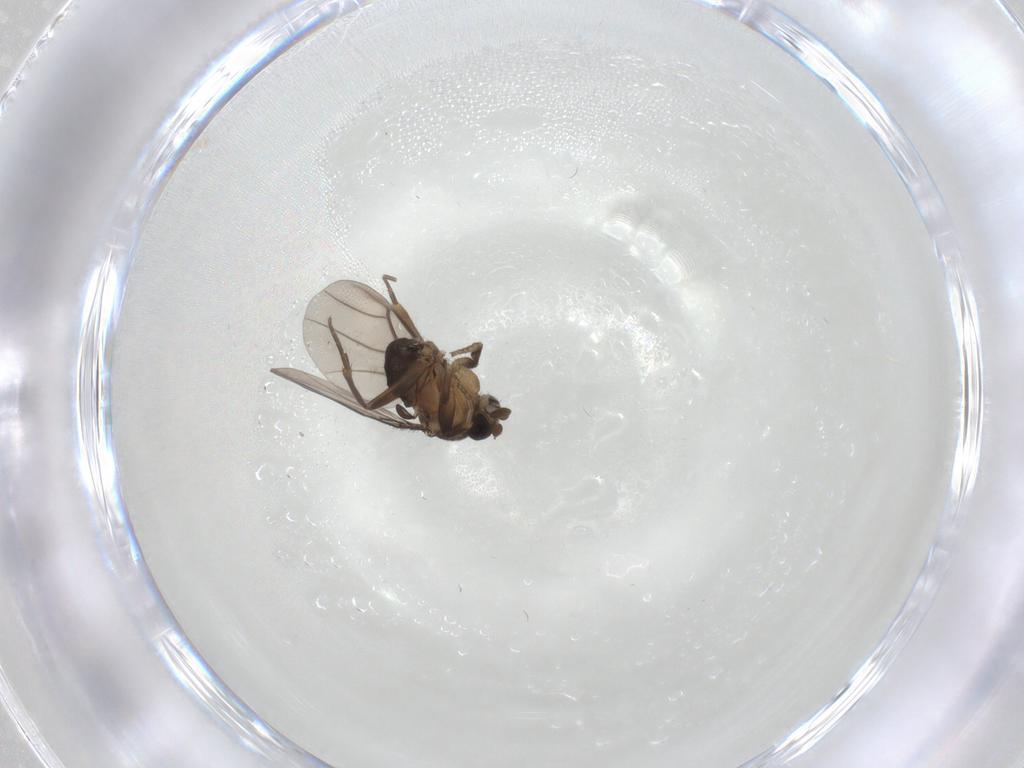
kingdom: Animalia
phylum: Arthropoda
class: Insecta
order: Diptera
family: Phoridae
